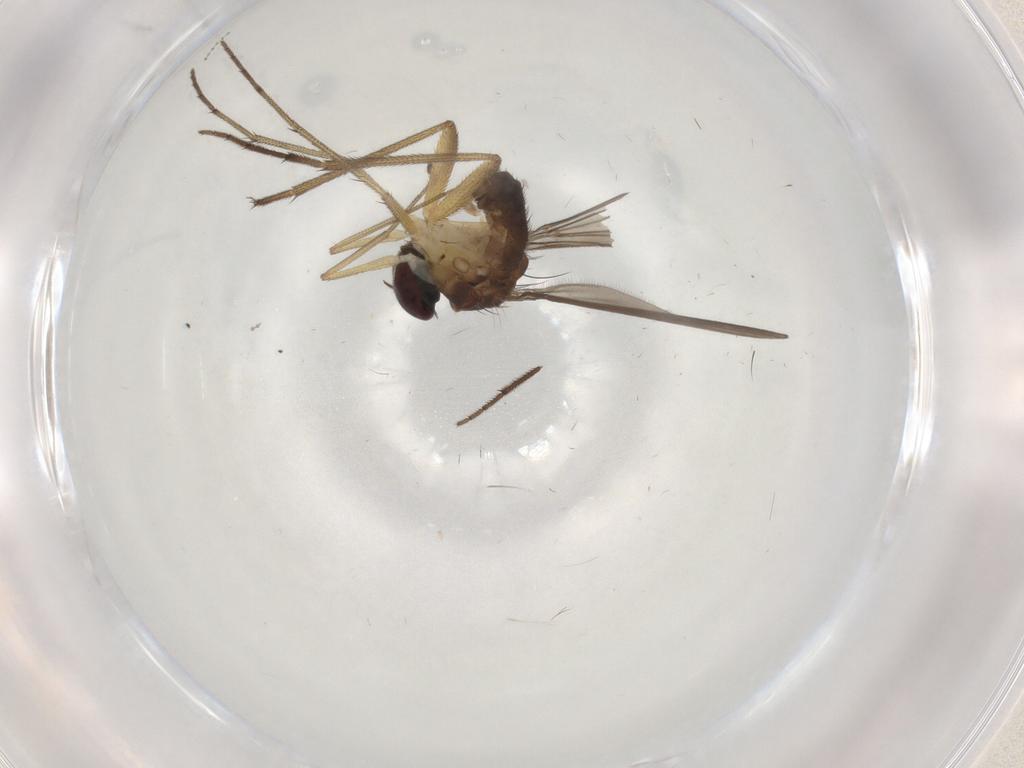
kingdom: Animalia
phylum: Arthropoda
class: Insecta
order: Diptera
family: Dolichopodidae
